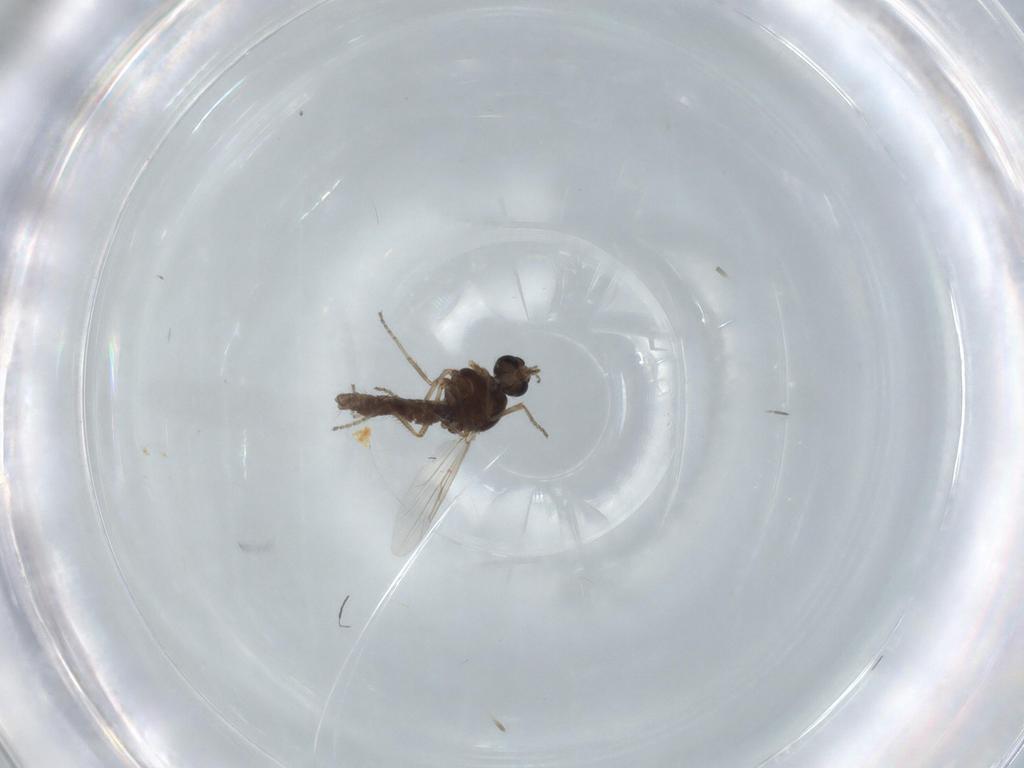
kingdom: Animalia
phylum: Arthropoda
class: Insecta
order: Diptera
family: Ceratopogonidae
